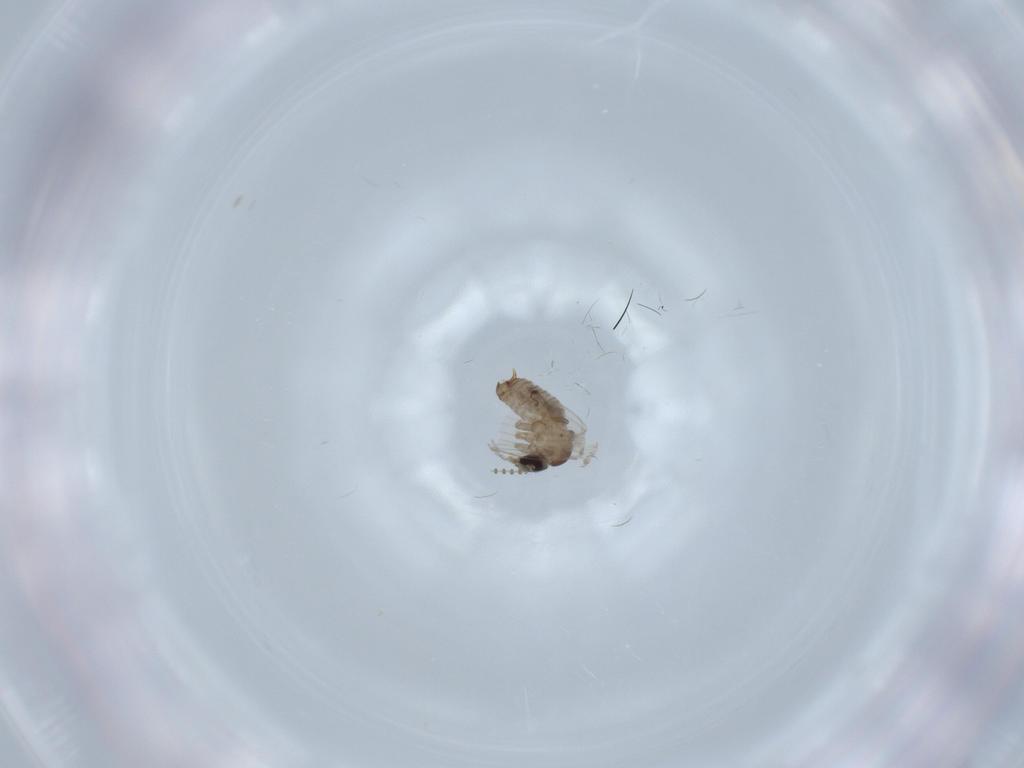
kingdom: Animalia
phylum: Arthropoda
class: Insecta
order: Diptera
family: Psychodidae
